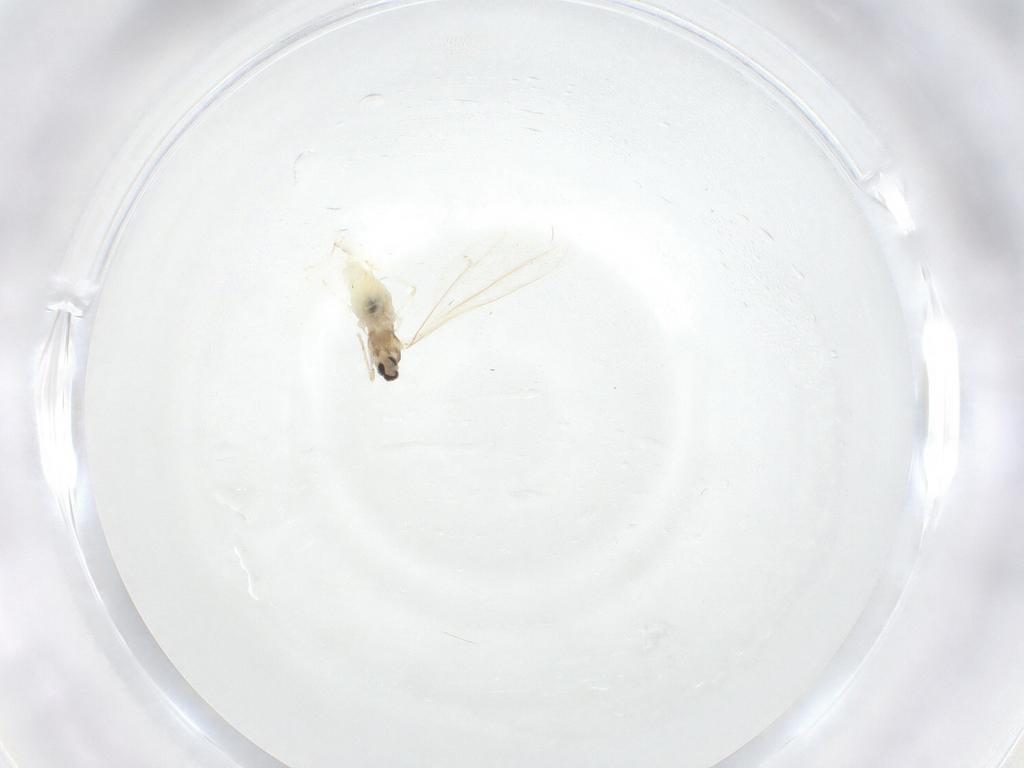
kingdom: Animalia
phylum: Arthropoda
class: Insecta
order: Diptera
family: Cecidomyiidae
